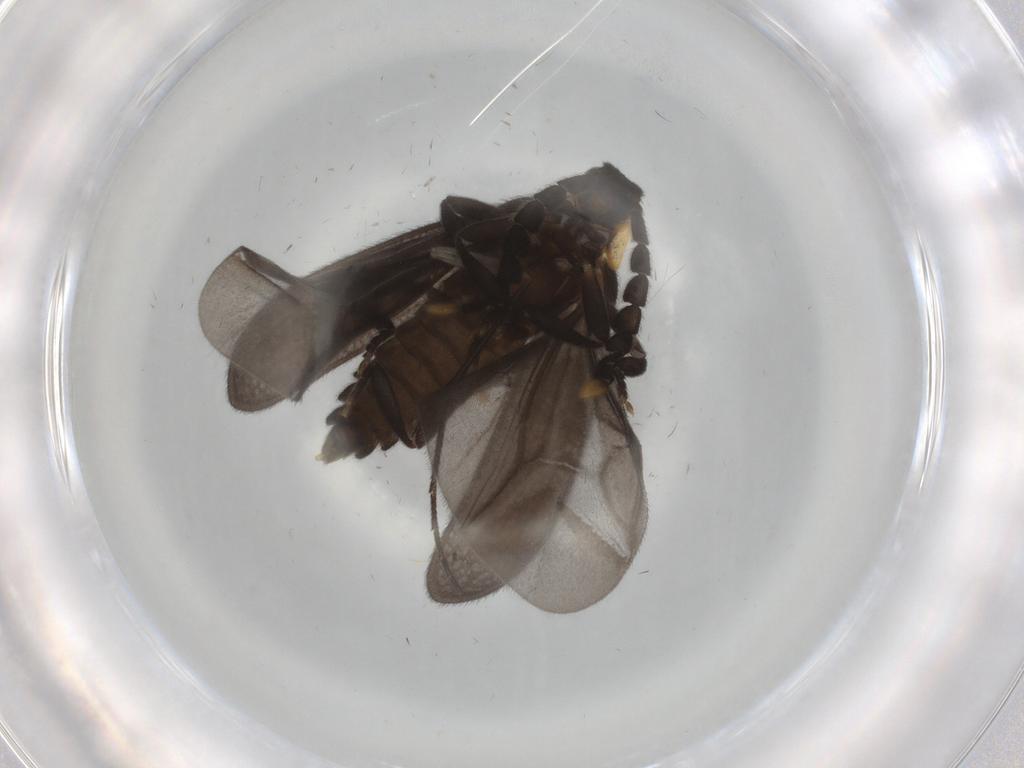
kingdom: Animalia
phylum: Arthropoda
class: Insecta
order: Coleoptera
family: Lycidae
